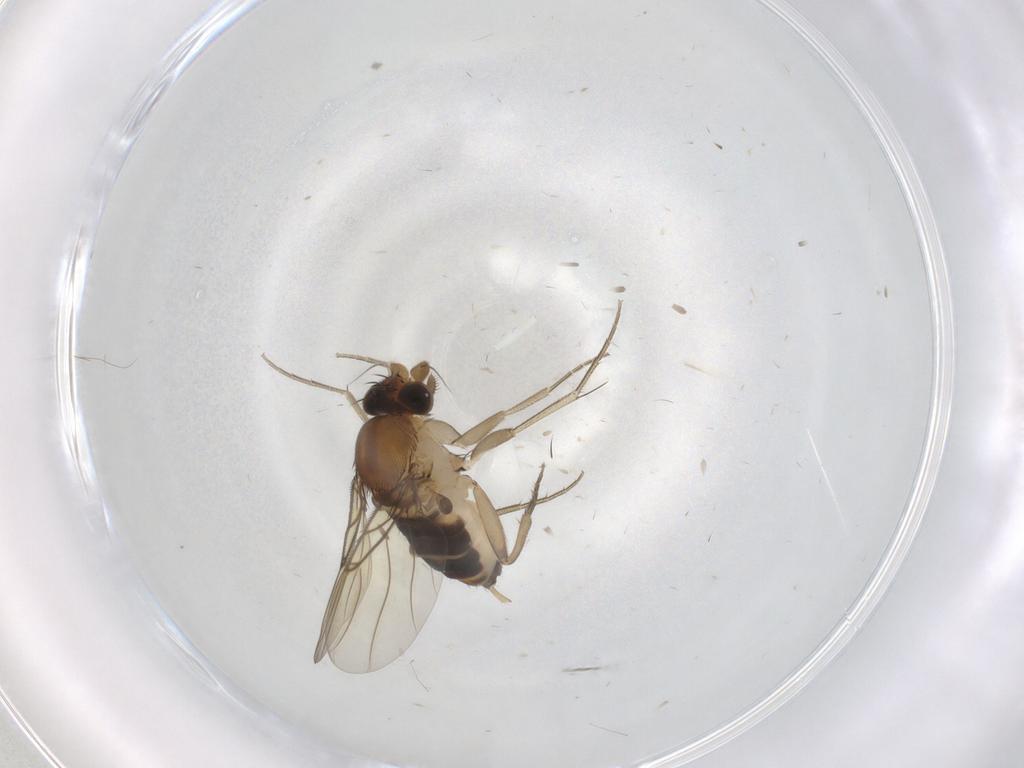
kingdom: Animalia
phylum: Arthropoda
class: Insecta
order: Diptera
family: Phoridae
